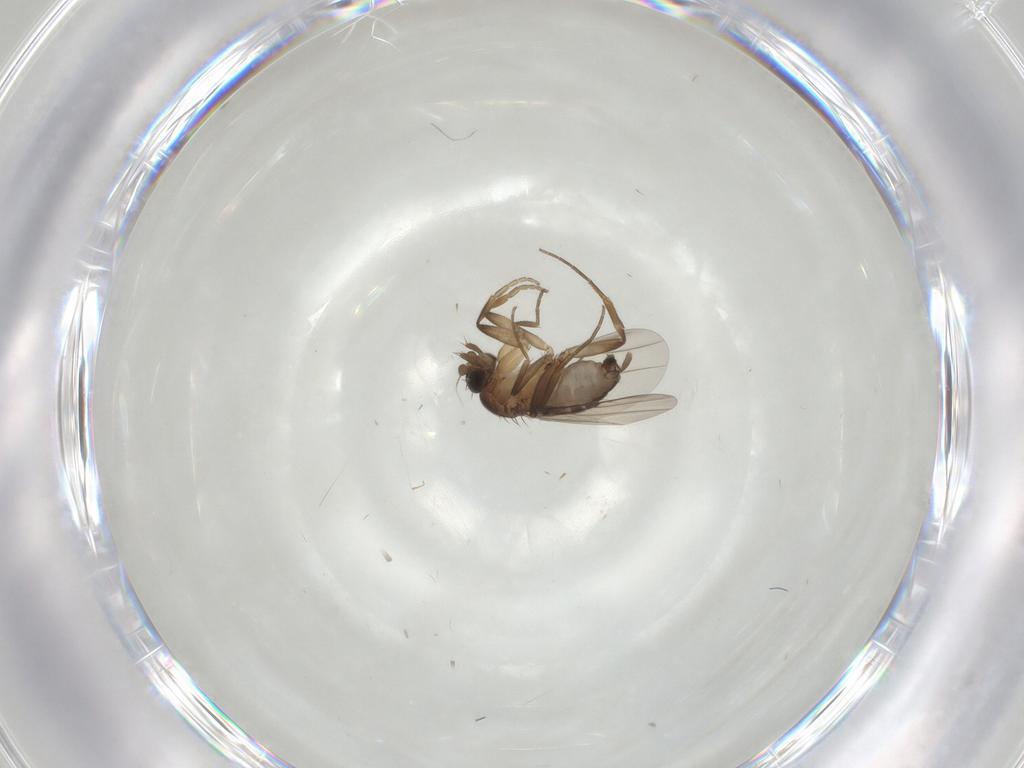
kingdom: Animalia
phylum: Arthropoda
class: Insecta
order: Diptera
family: Phoridae
